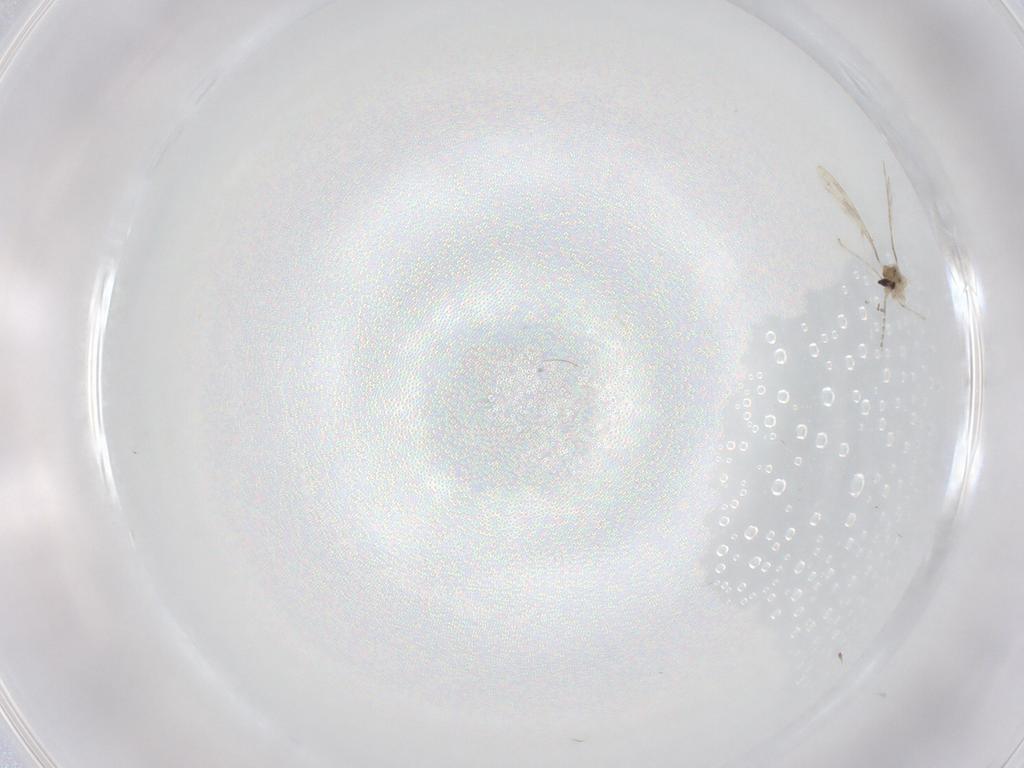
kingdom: Animalia
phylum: Arthropoda
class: Insecta
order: Diptera
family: Cecidomyiidae
